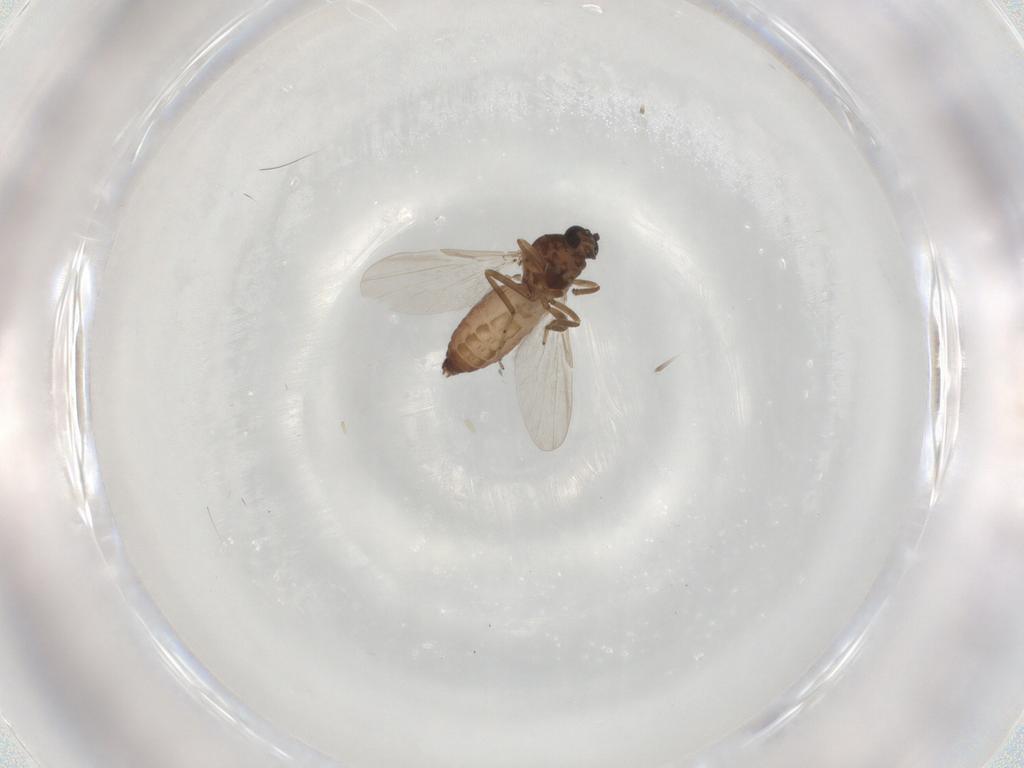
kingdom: Animalia
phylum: Arthropoda
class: Insecta
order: Diptera
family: Ceratopogonidae
